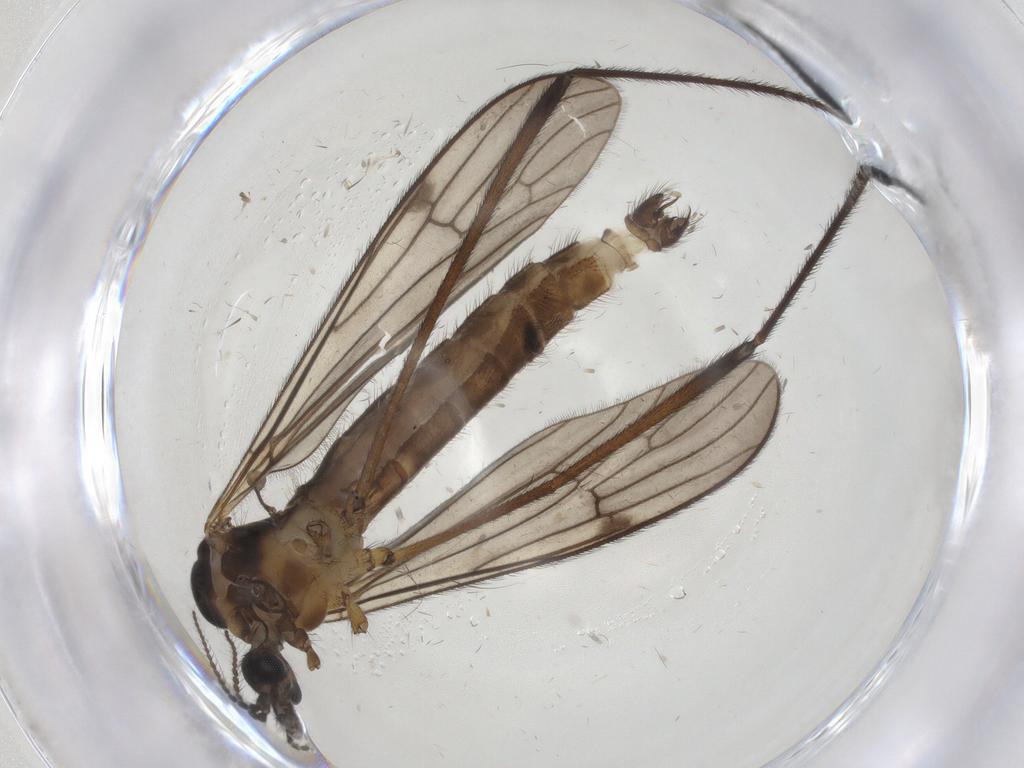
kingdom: Animalia
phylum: Arthropoda
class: Insecta
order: Diptera
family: Limoniidae
